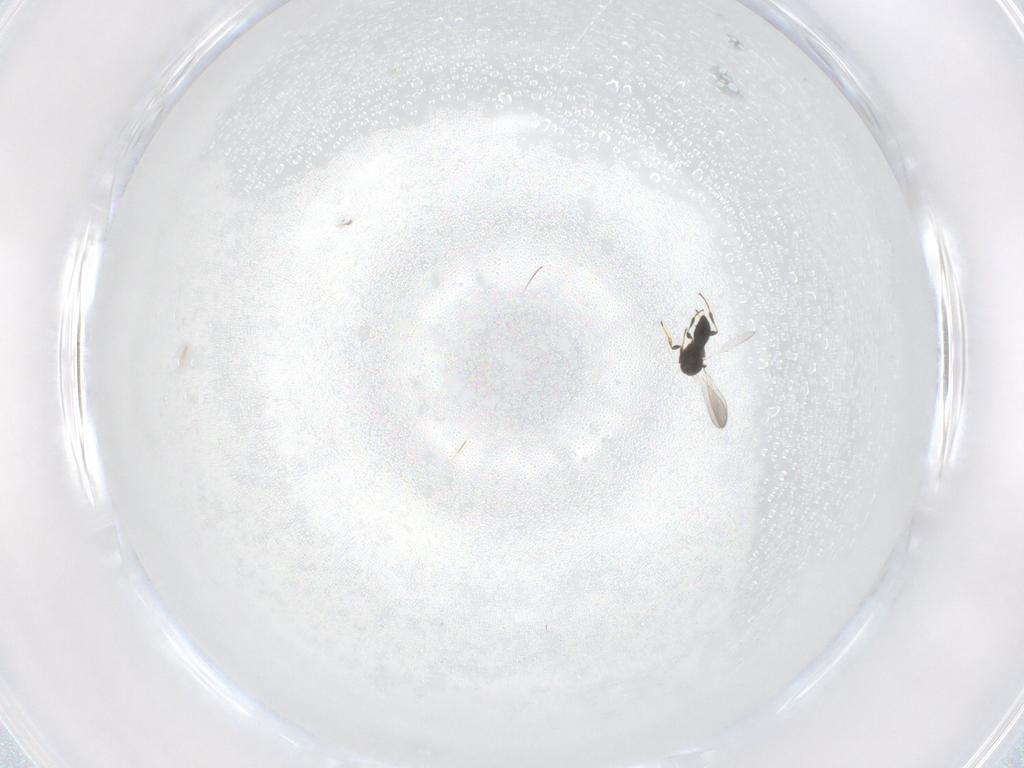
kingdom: Animalia
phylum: Arthropoda
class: Insecta
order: Hymenoptera
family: Platygastridae
